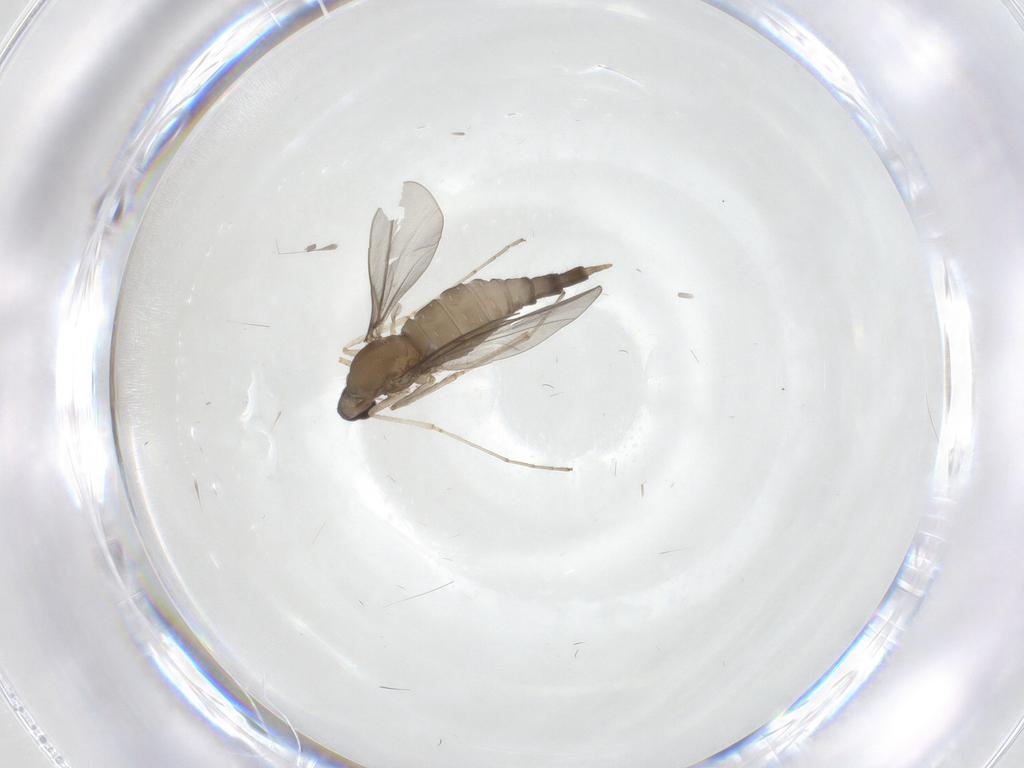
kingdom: Animalia
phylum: Arthropoda
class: Insecta
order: Diptera
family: Cecidomyiidae
